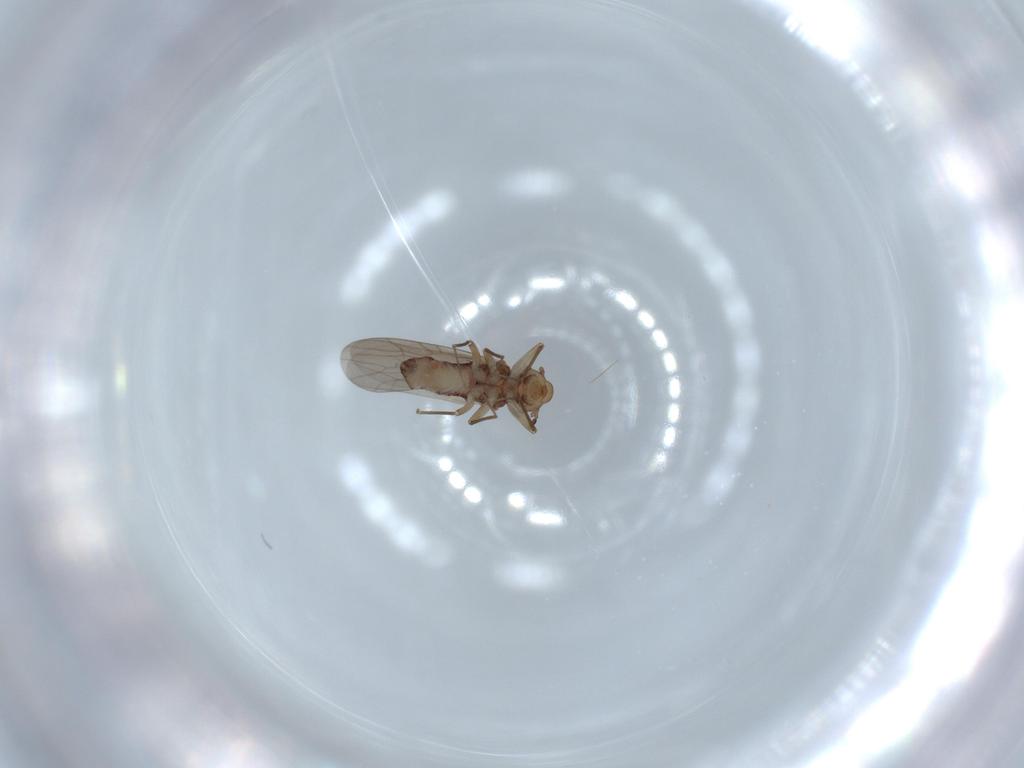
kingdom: Animalia
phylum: Arthropoda
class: Insecta
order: Psocodea
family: Lepidopsocidae
